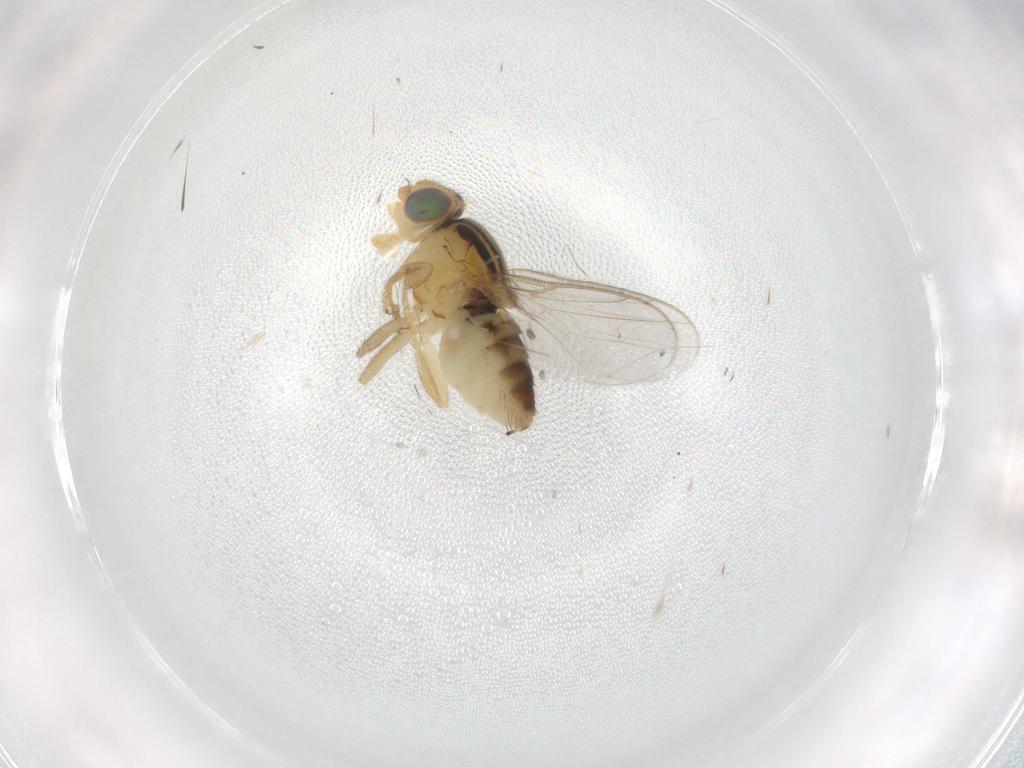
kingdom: Animalia
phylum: Arthropoda
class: Insecta
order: Diptera
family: Chloropidae
